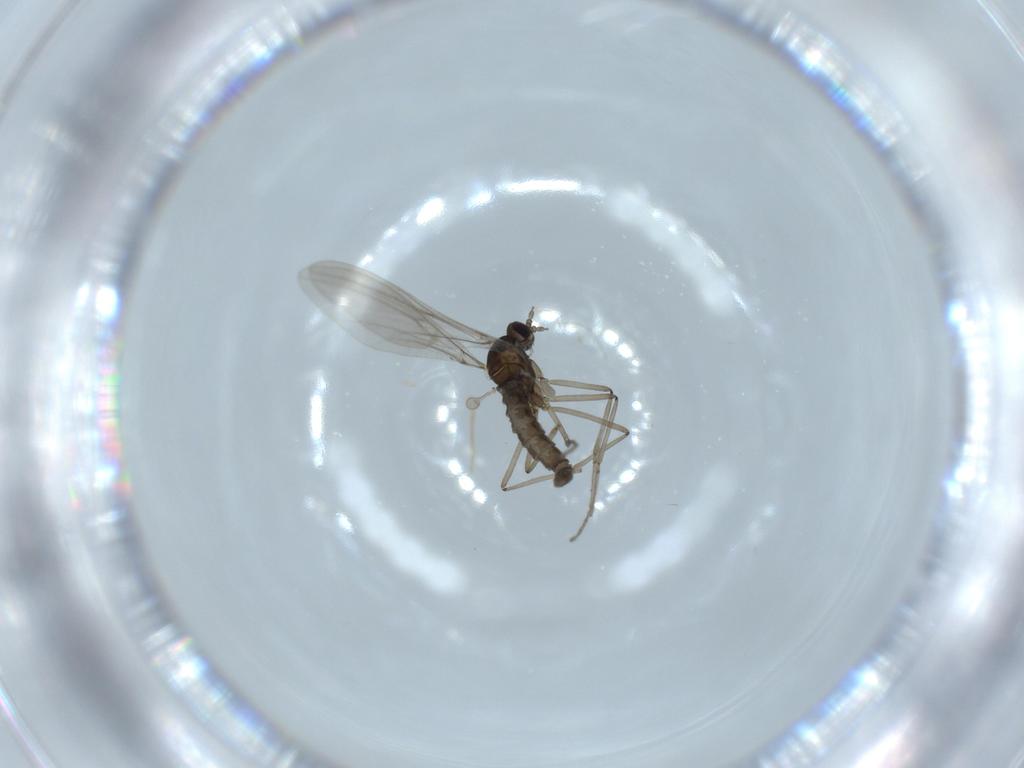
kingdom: Animalia
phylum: Arthropoda
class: Insecta
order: Diptera
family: Cecidomyiidae
